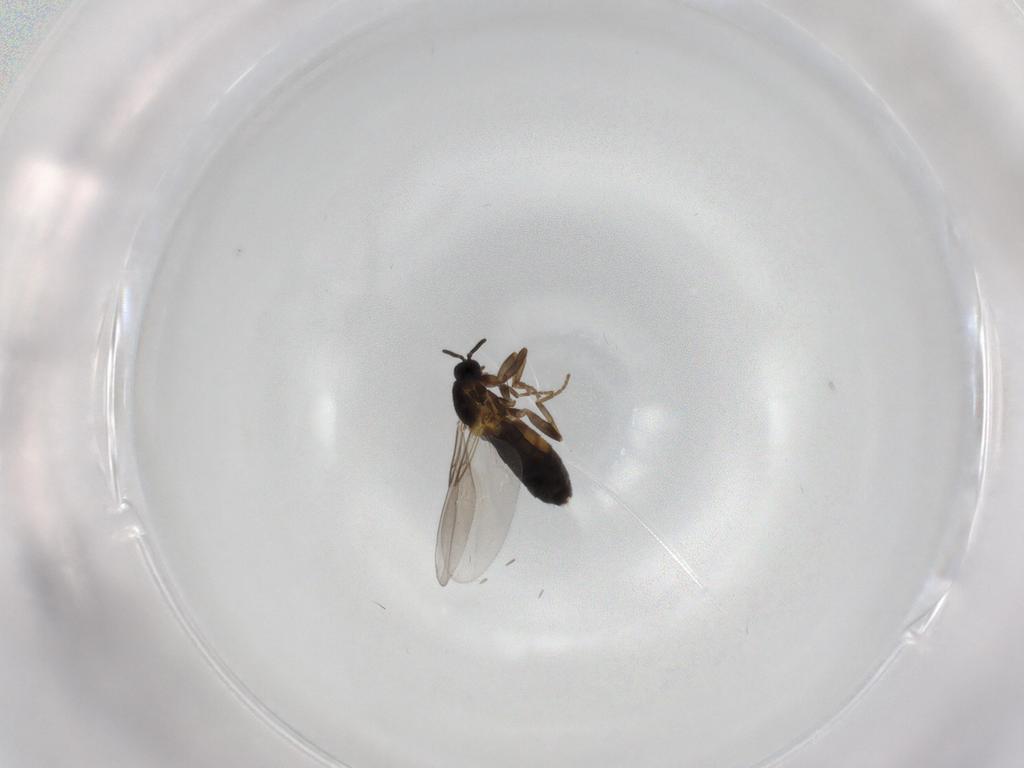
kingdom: Animalia
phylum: Arthropoda
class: Insecta
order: Diptera
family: Scatopsidae
